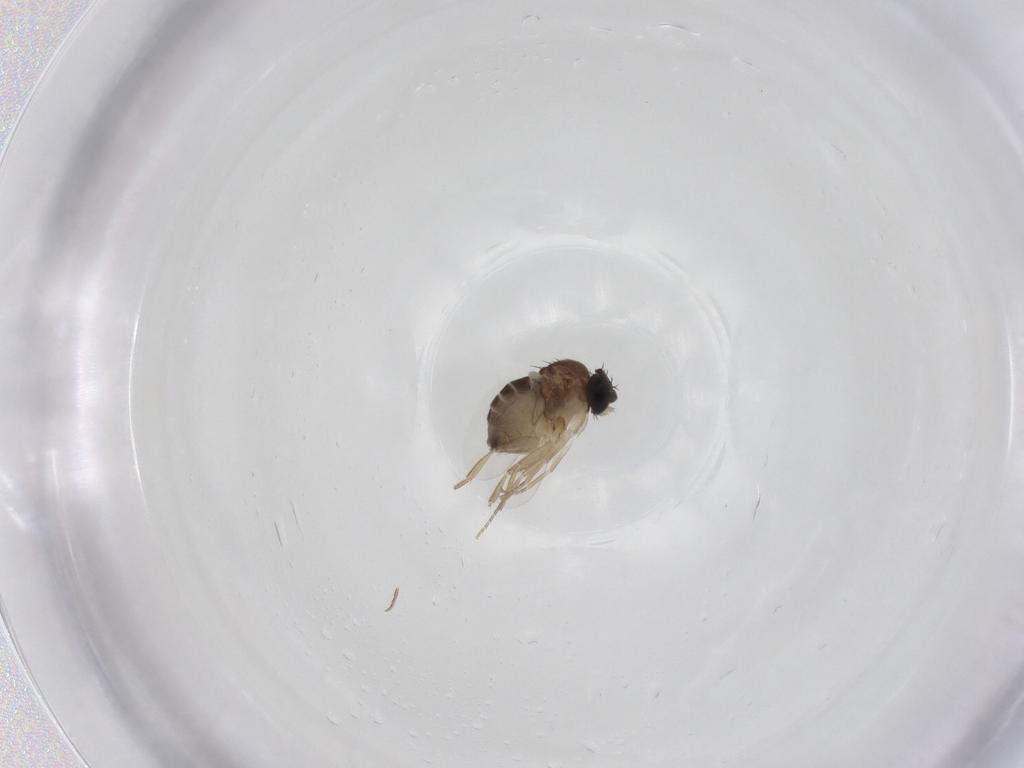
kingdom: Animalia
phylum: Arthropoda
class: Insecta
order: Diptera
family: Phoridae
